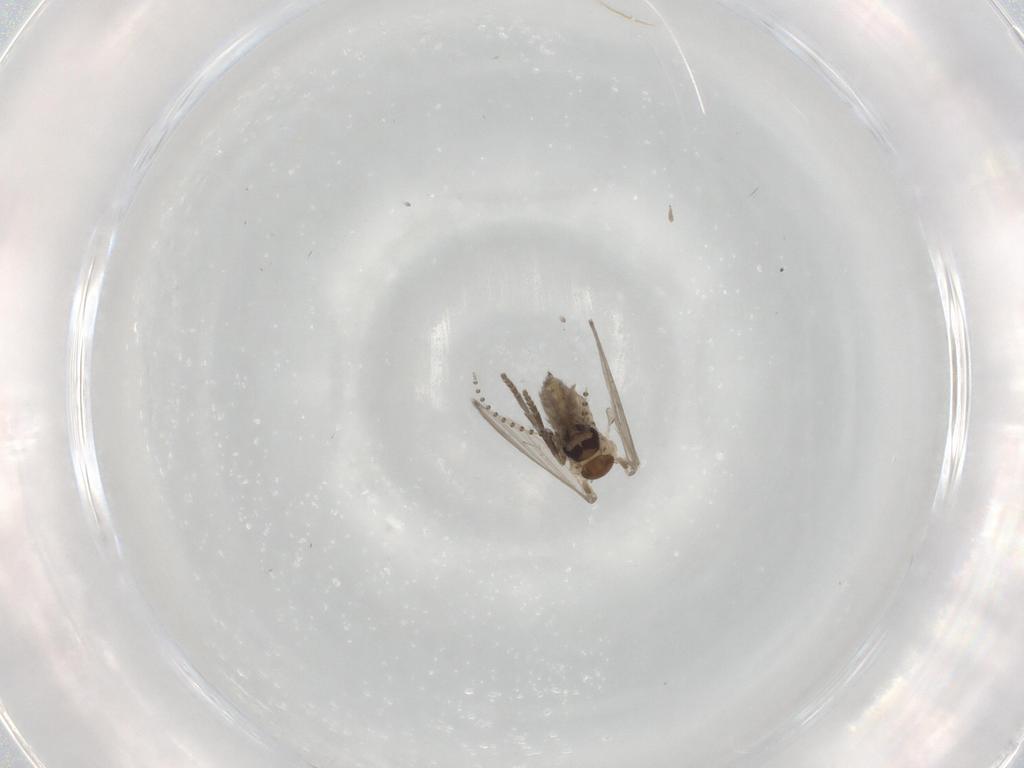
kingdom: Animalia
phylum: Arthropoda
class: Insecta
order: Diptera
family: Psychodidae
